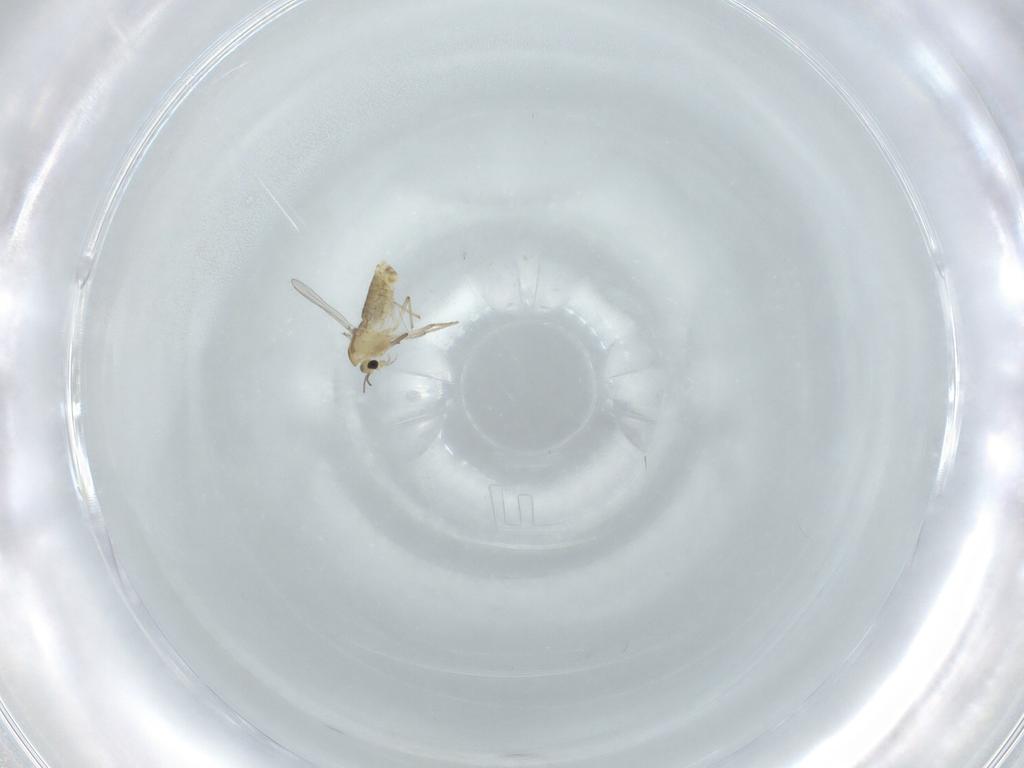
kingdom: Animalia
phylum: Arthropoda
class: Insecta
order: Diptera
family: Chironomidae
